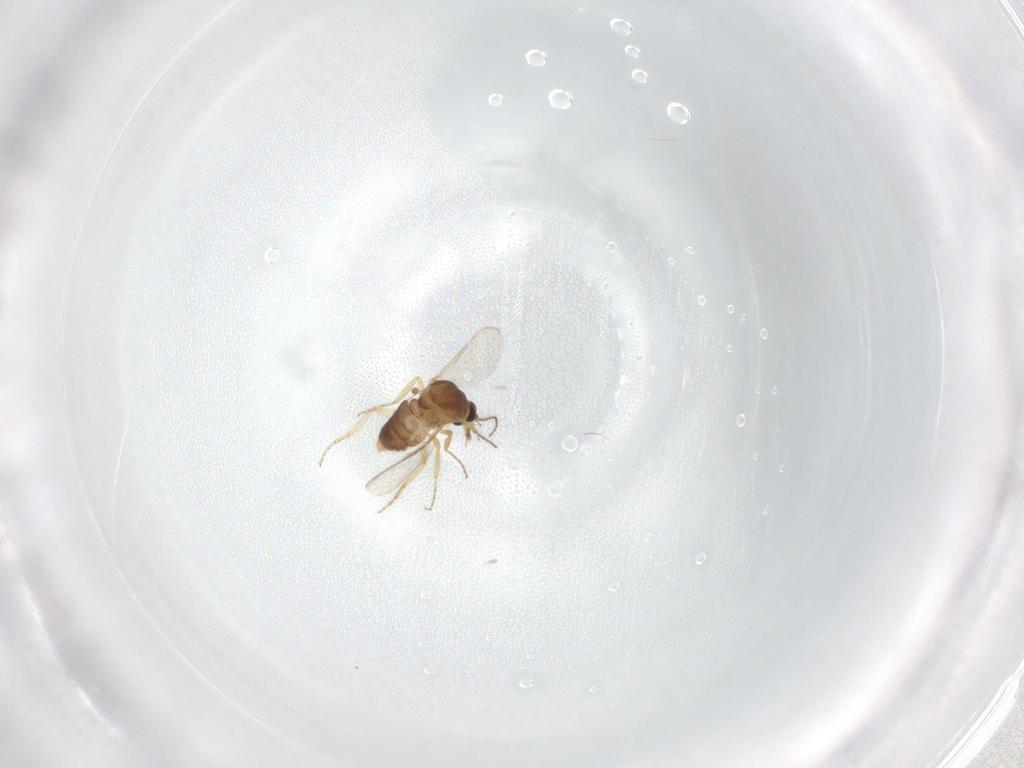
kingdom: Animalia
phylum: Arthropoda
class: Insecta
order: Diptera
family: Ceratopogonidae
